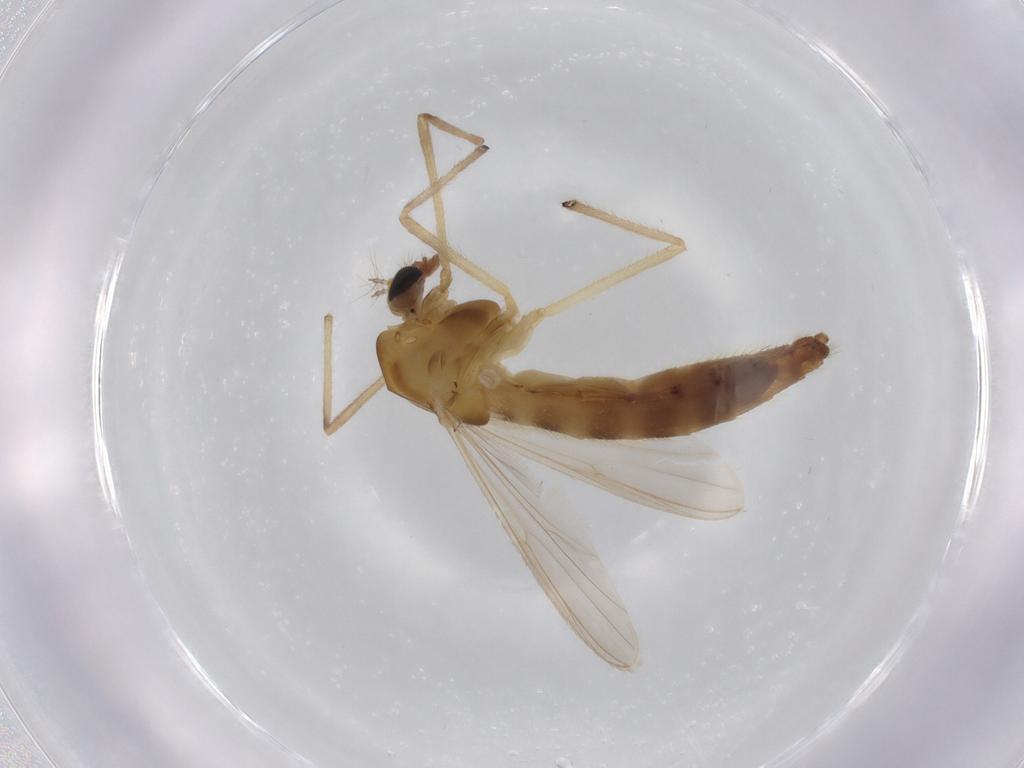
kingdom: Animalia
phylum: Arthropoda
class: Insecta
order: Diptera
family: Chironomidae
